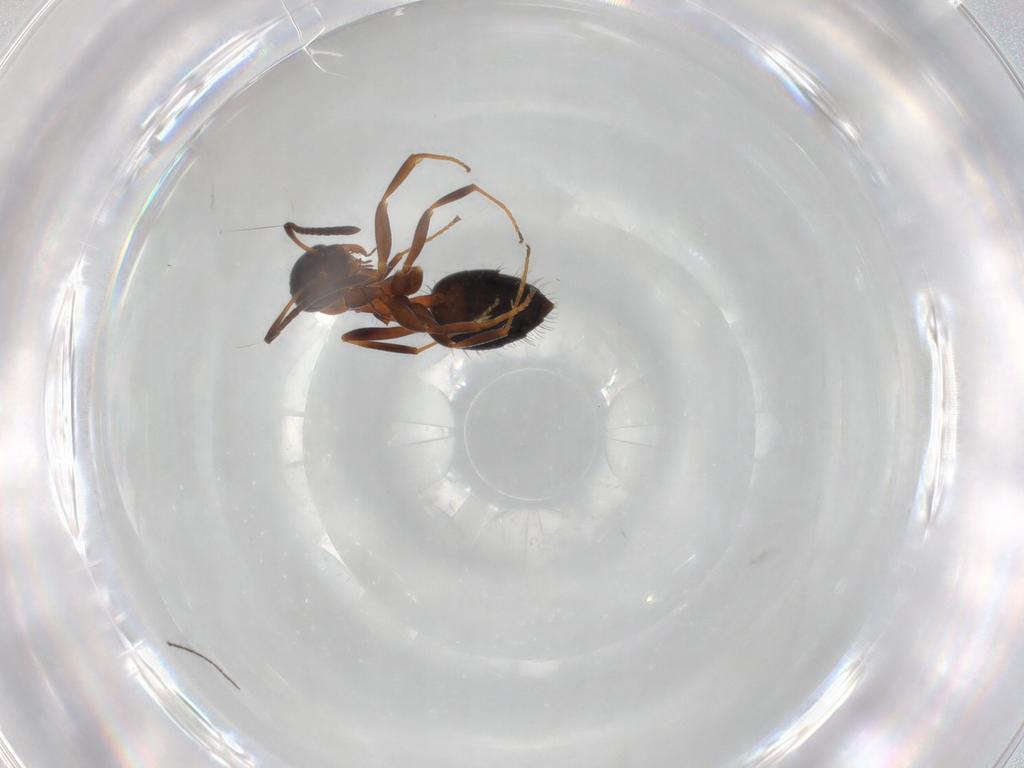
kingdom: Animalia
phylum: Arthropoda
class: Insecta
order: Hymenoptera
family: Formicidae
